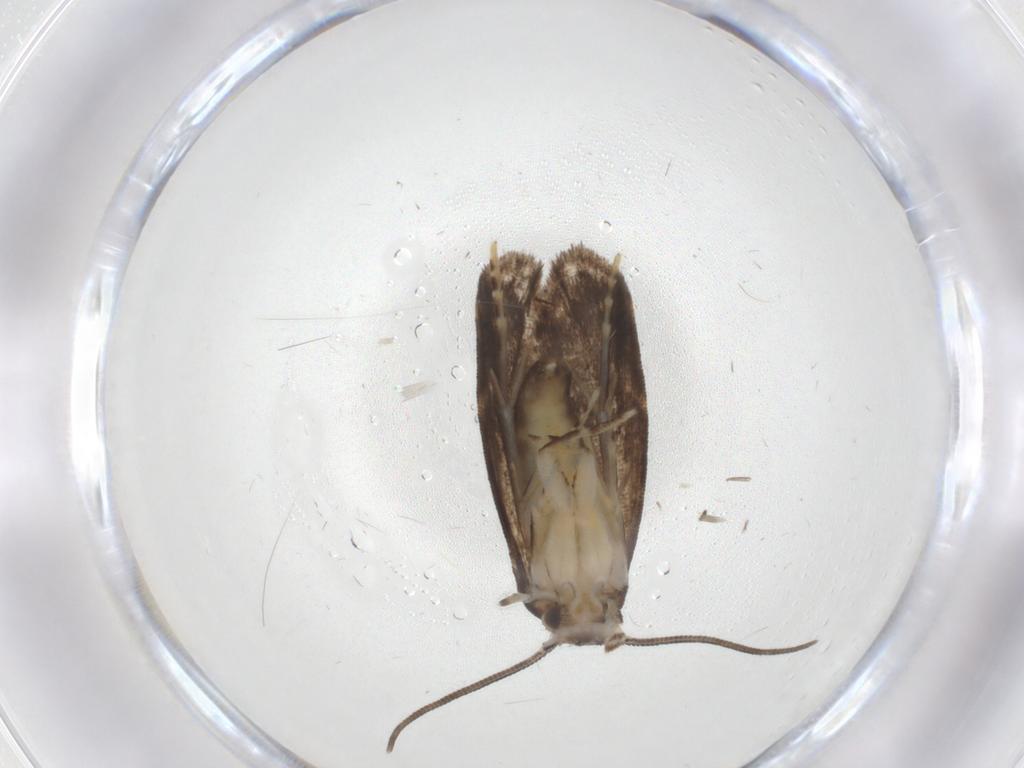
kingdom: Animalia
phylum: Arthropoda
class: Insecta
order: Lepidoptera
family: Dryadaulidae
